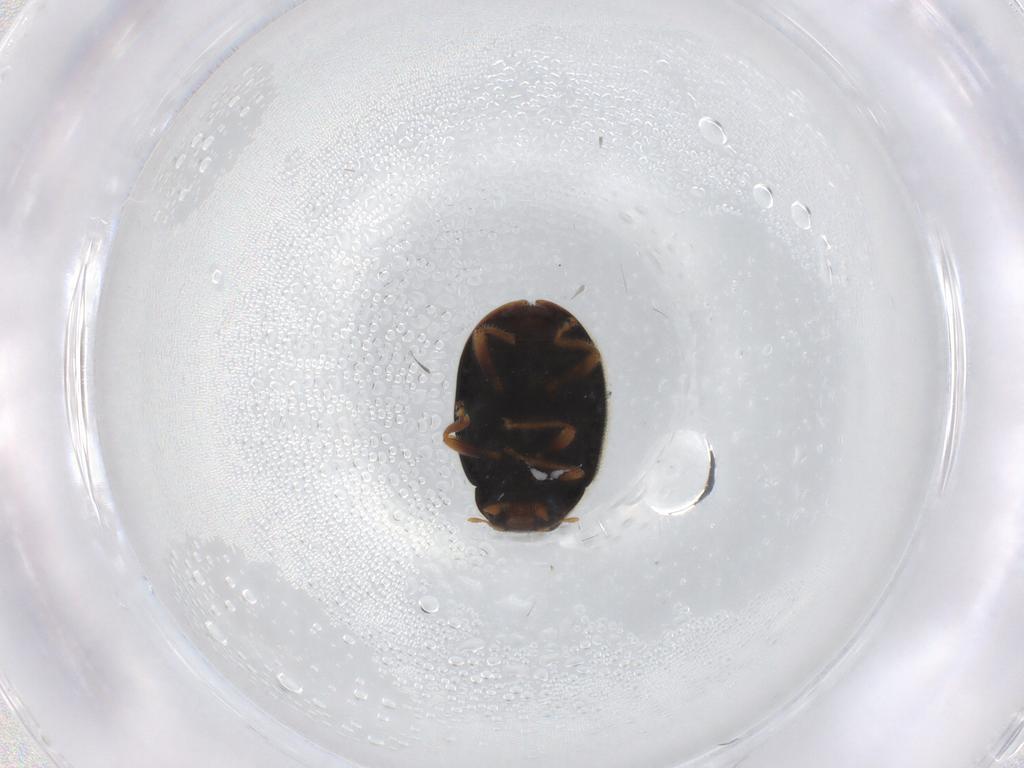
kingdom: Animalia
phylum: Arthropoda
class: Insecta
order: Coleoptera
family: Coccinellidae
